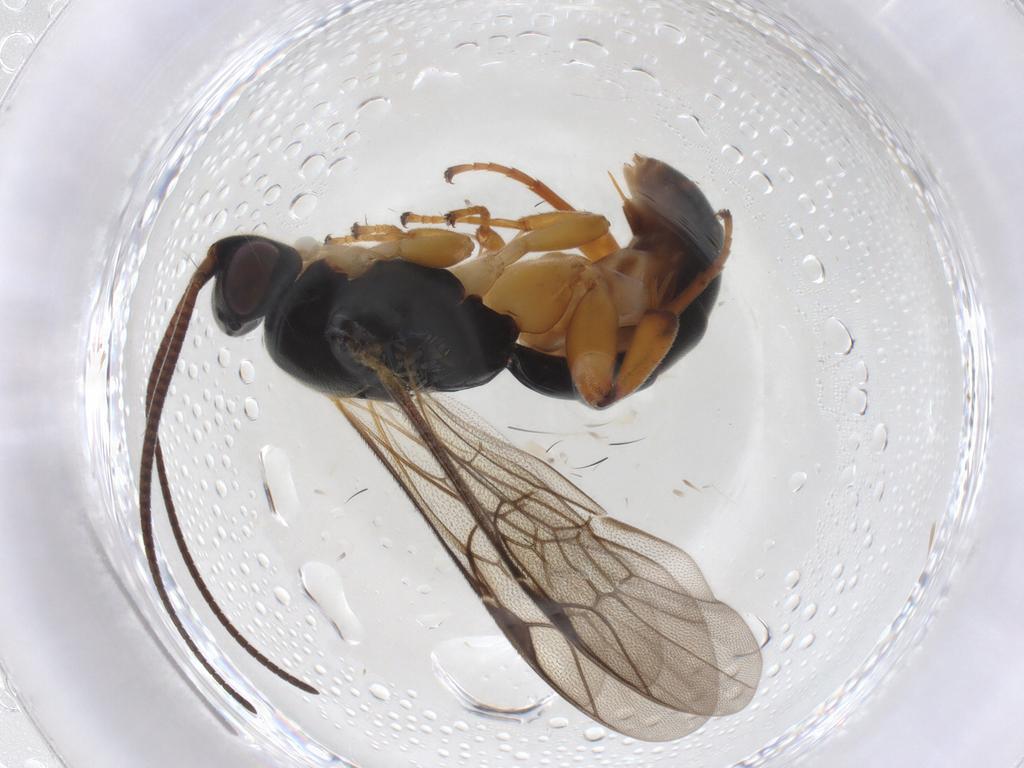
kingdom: Animalia
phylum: Arthropoda
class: Insecta
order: Hymenoptera
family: Ichneumonidae
